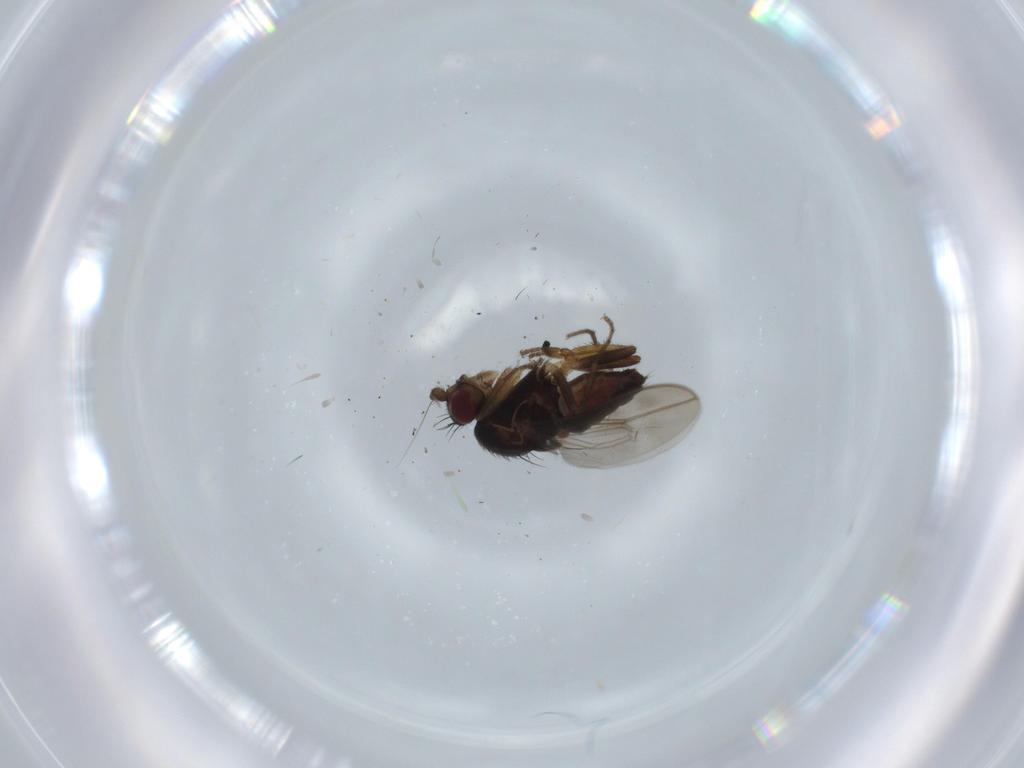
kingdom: Animalia
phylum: Arthropoda
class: Insecta
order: Diptera
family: Sphaeroceridae
